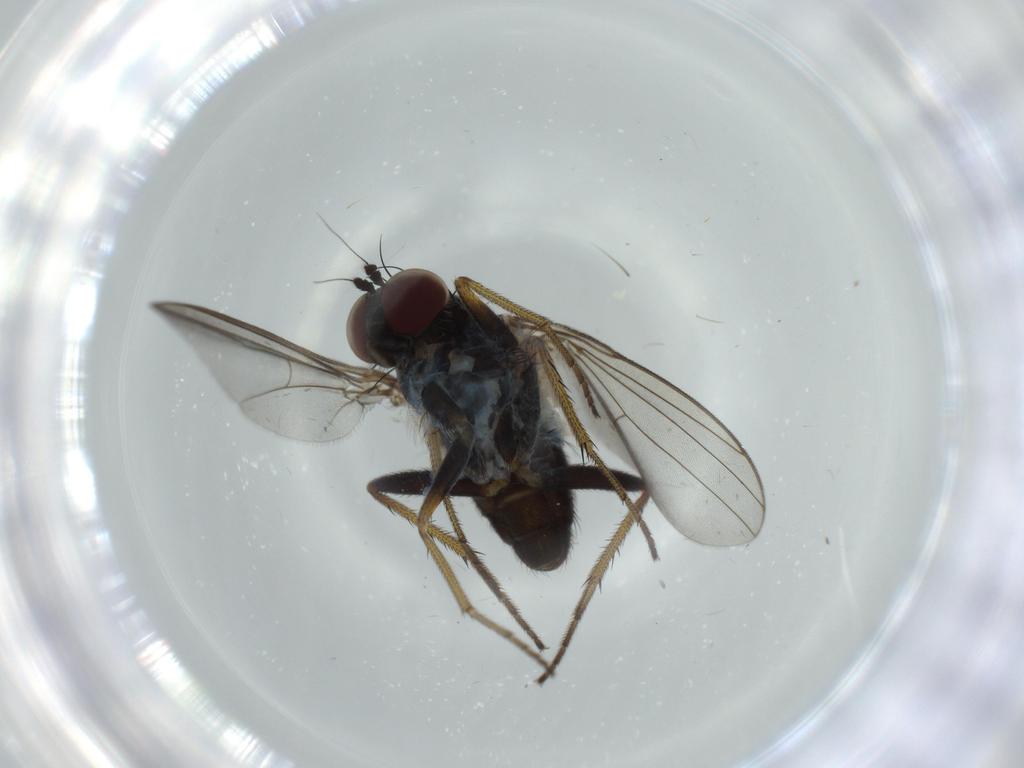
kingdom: Animalia
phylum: Arthropoda
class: Insecta
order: Diptera
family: Dolichopodidae
